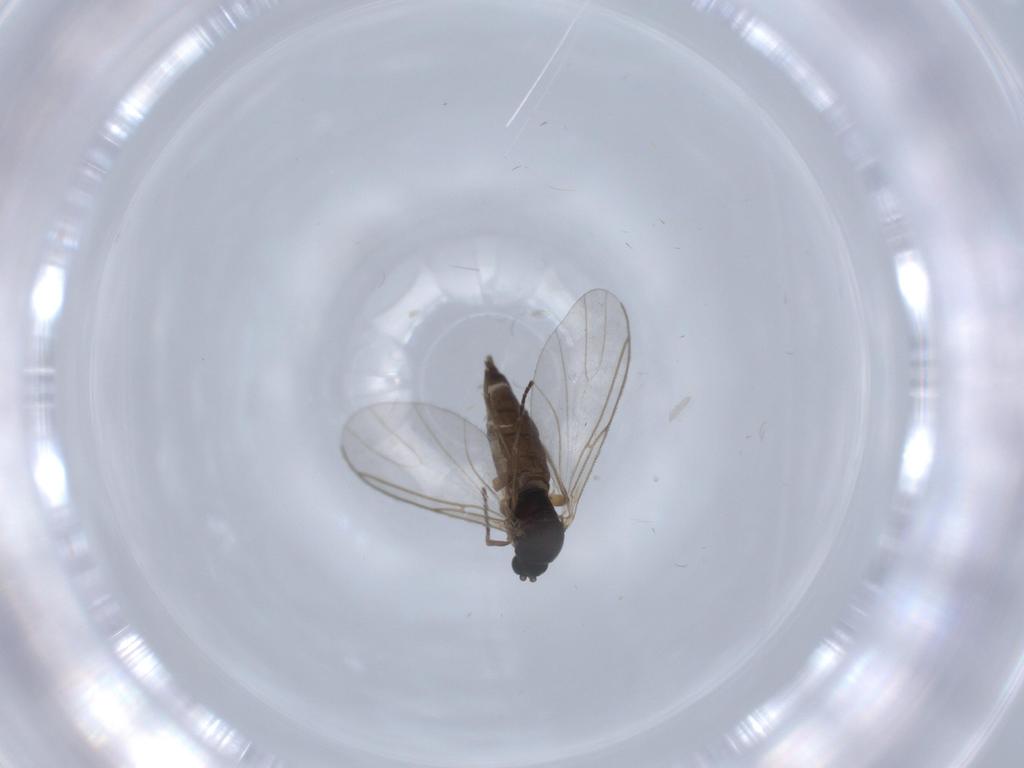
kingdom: Animalia
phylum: Arthropoda
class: Insecta
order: Diptera
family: Sciaridae
